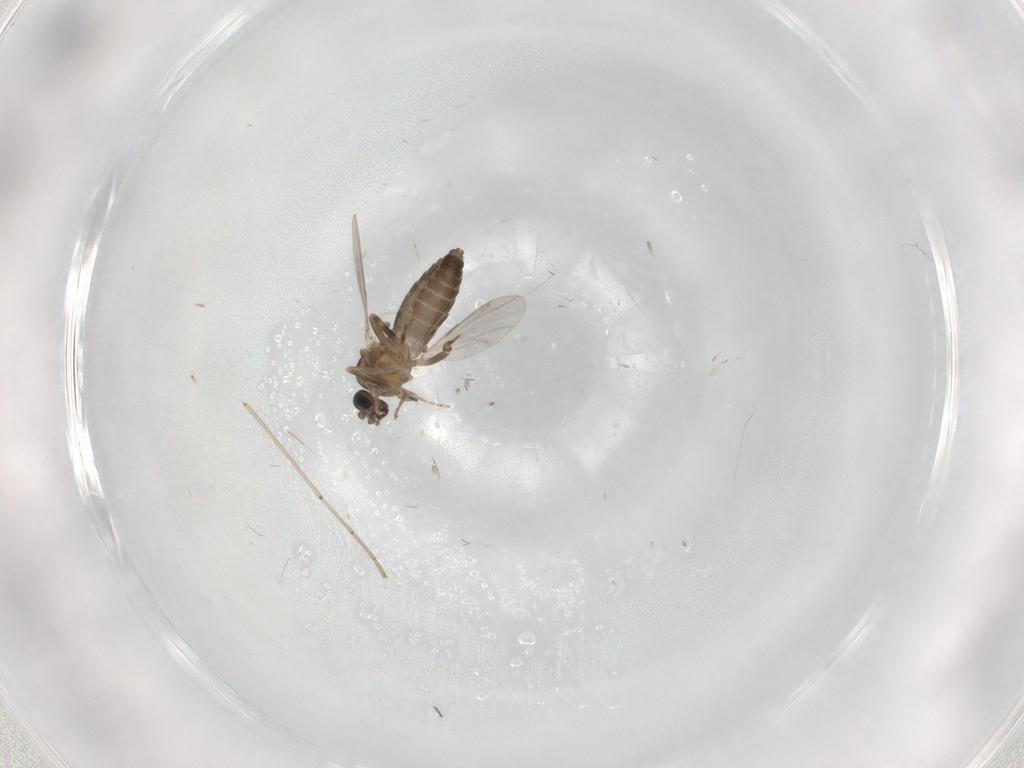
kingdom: Animalia
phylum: Arthropoda
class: Insecta
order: Diptera
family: Ceratopogonidae
